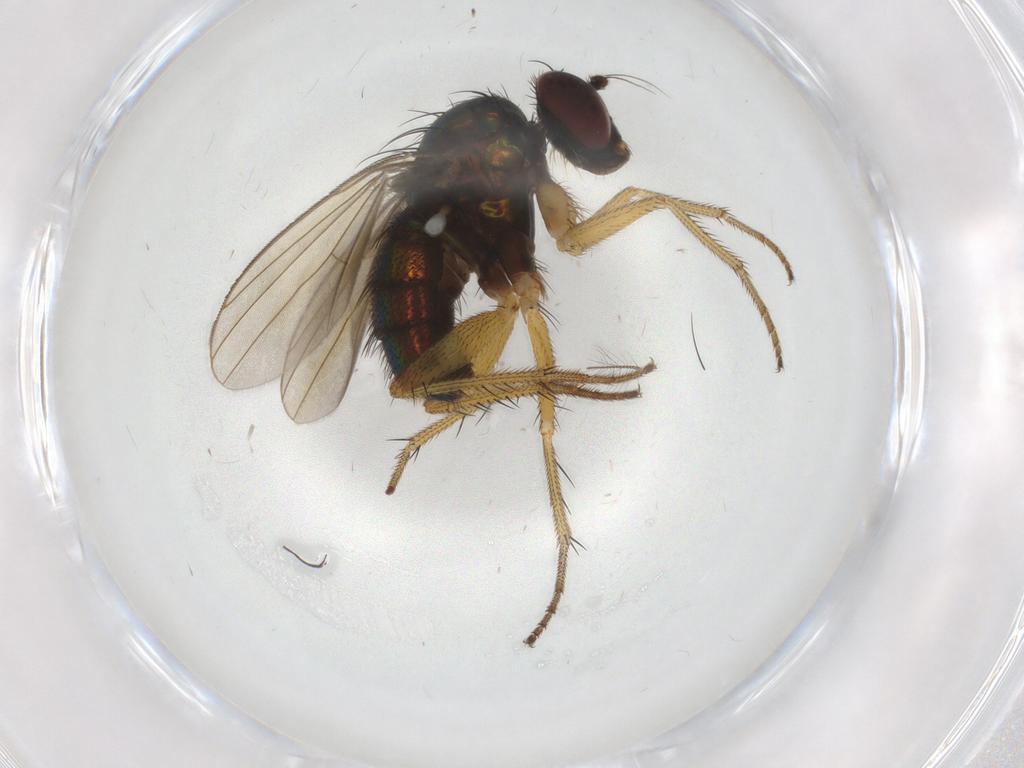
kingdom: Animalia
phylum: Arthropoda
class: Insecta
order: Diptera
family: Dolichopodidae
